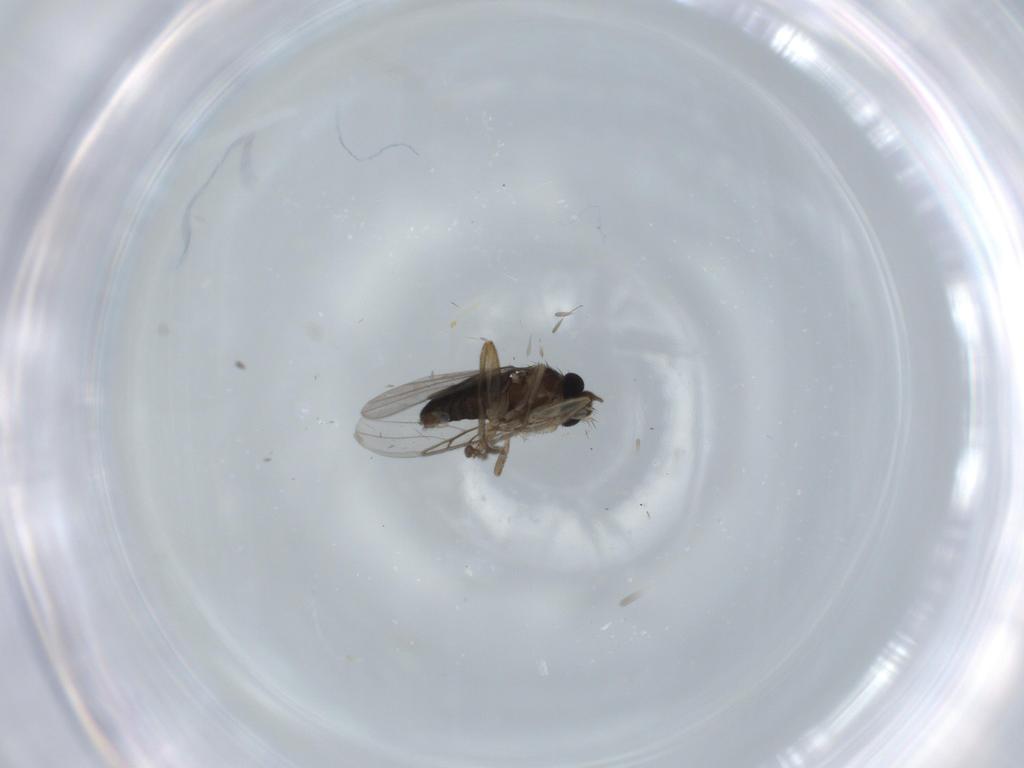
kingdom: Animalia
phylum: Arthropoda
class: Insecta
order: Diptera
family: Phoridae
